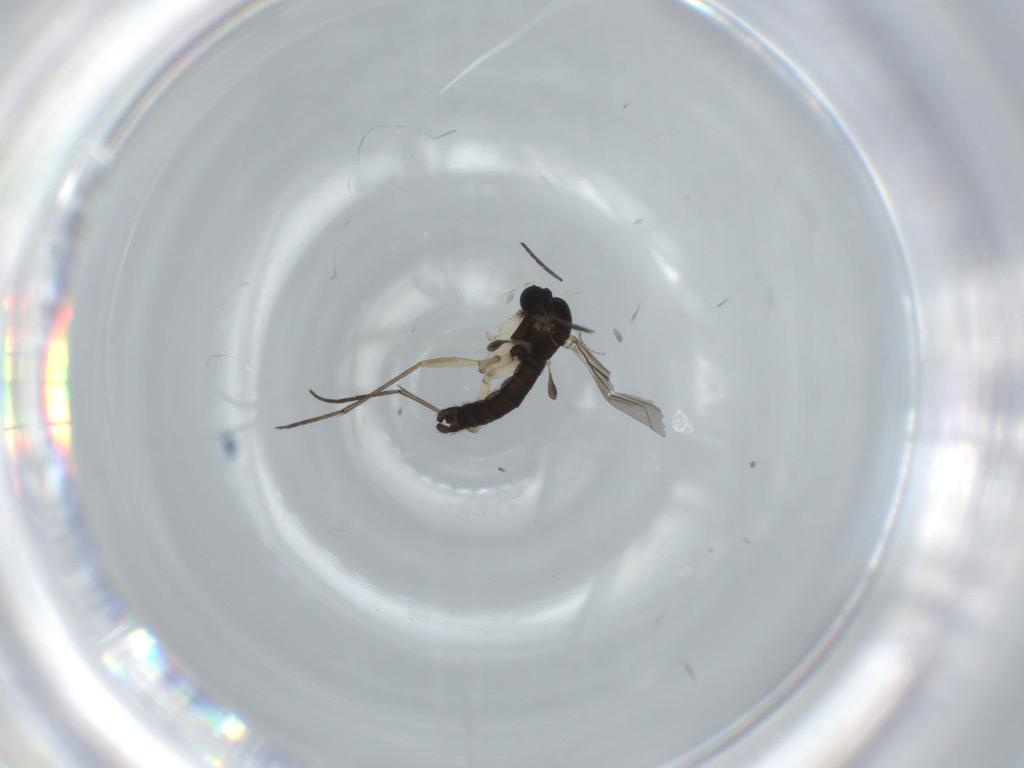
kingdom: Animalia
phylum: Arthropoda
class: Insecta
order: Diptera
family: Sciaridae
